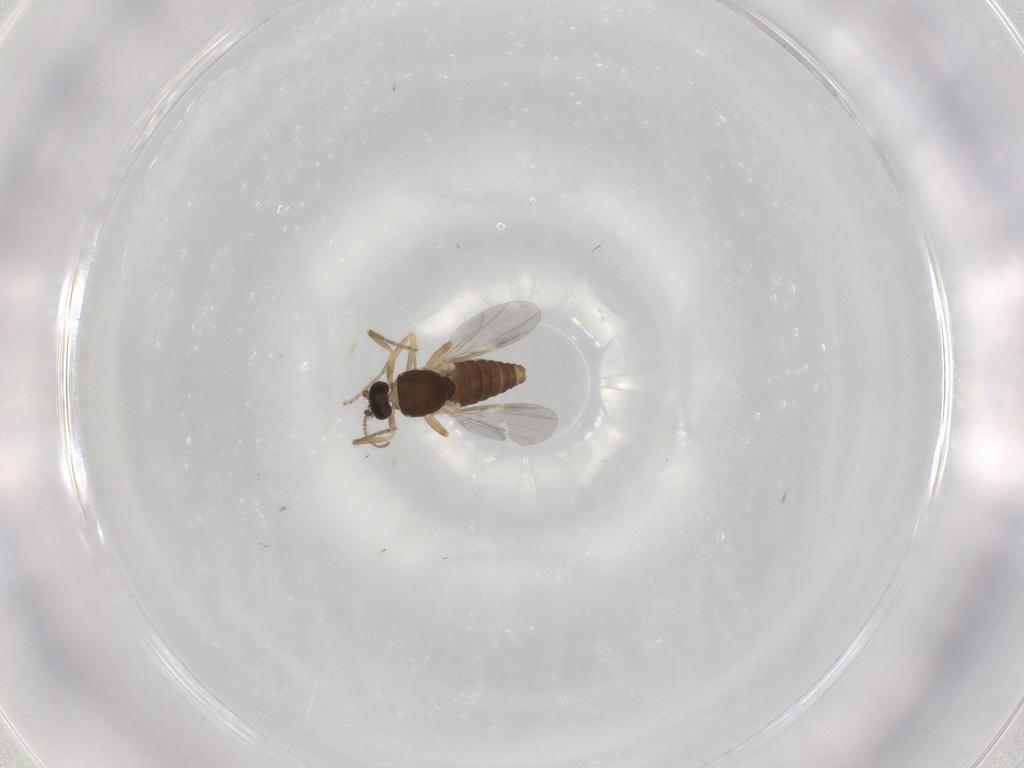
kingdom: Animalia
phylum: Arthropoda
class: Insecta
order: Diptera
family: Ceratopogonidae
